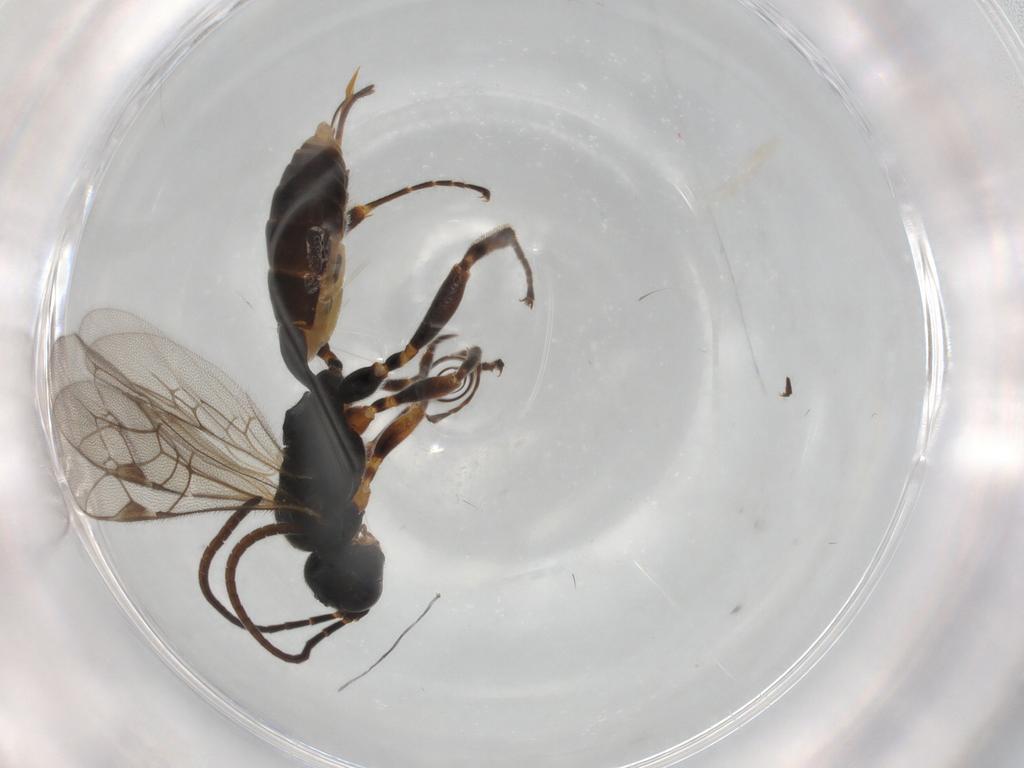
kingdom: Animalia
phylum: Arthropoda
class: Insecta
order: Hymenoptera
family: Ichneumonidae
